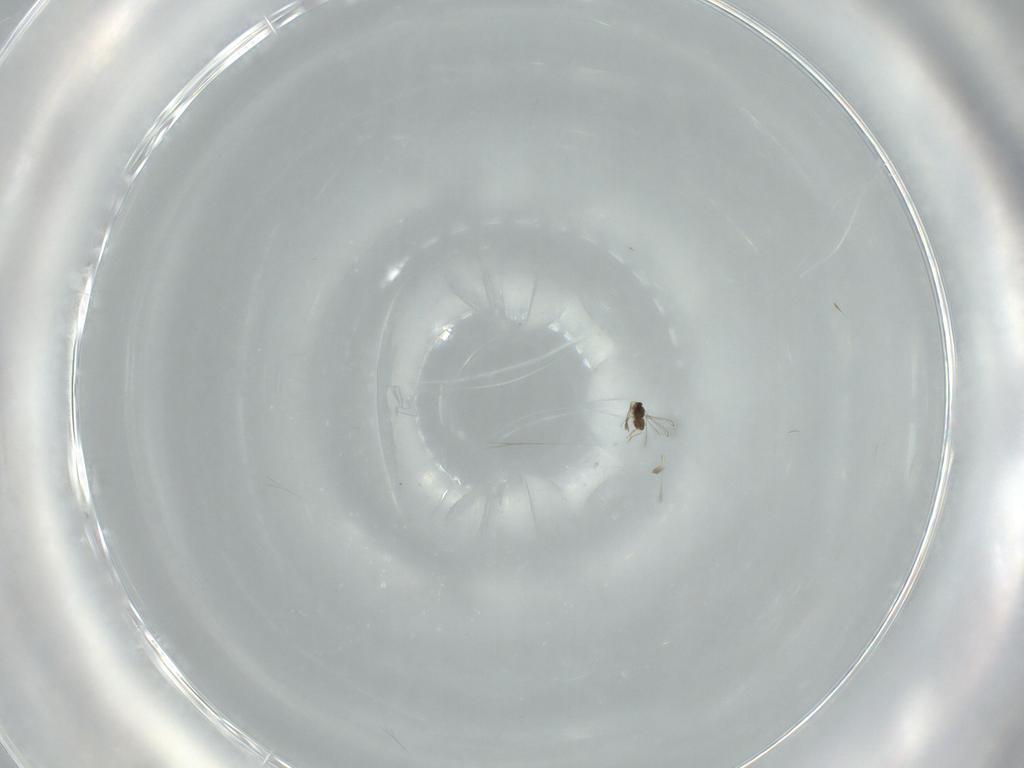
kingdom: Animalia
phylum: Arthropoda
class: Insecta
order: Hymenoptera
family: Mymaridae
